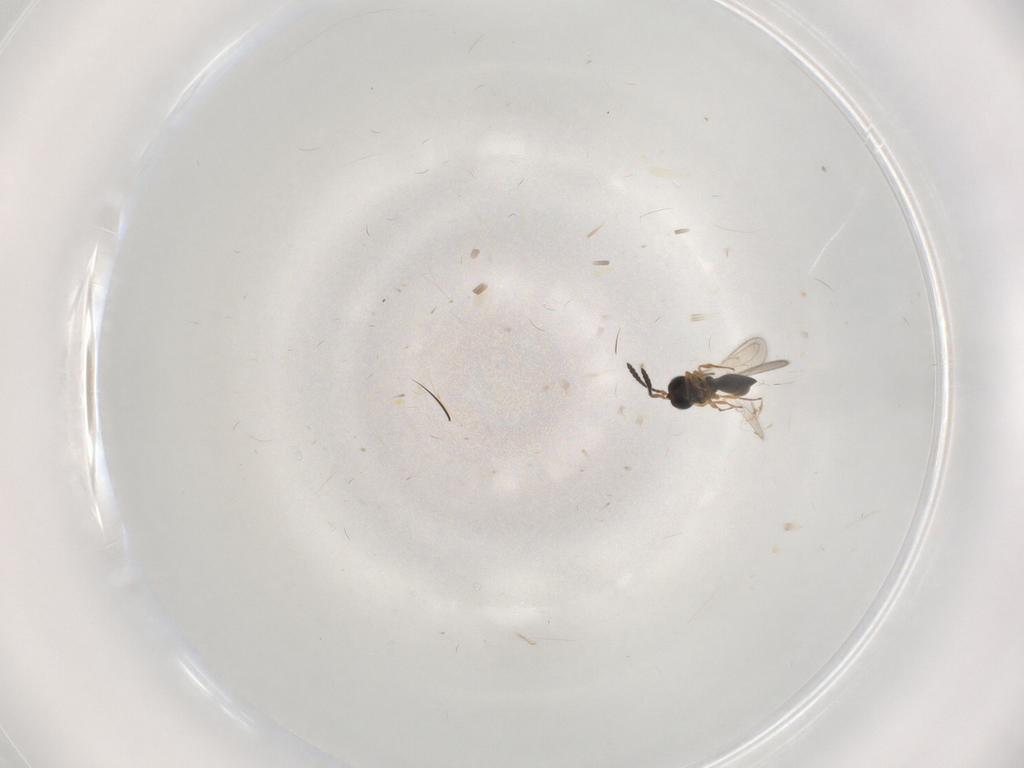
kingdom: Animalia
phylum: Arthropoda
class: Insecta
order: Hymenoptera
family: Scelionidae
